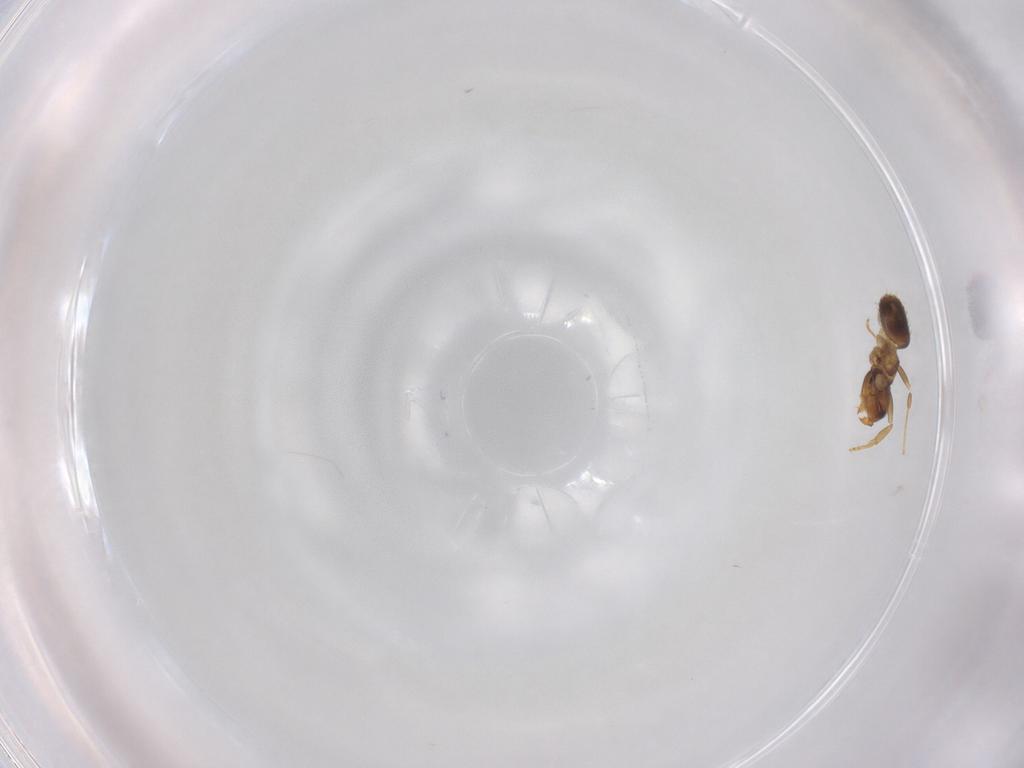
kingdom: Animalia
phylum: Arthropoda
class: Insecta
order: Hymenoptera
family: Formicidae
